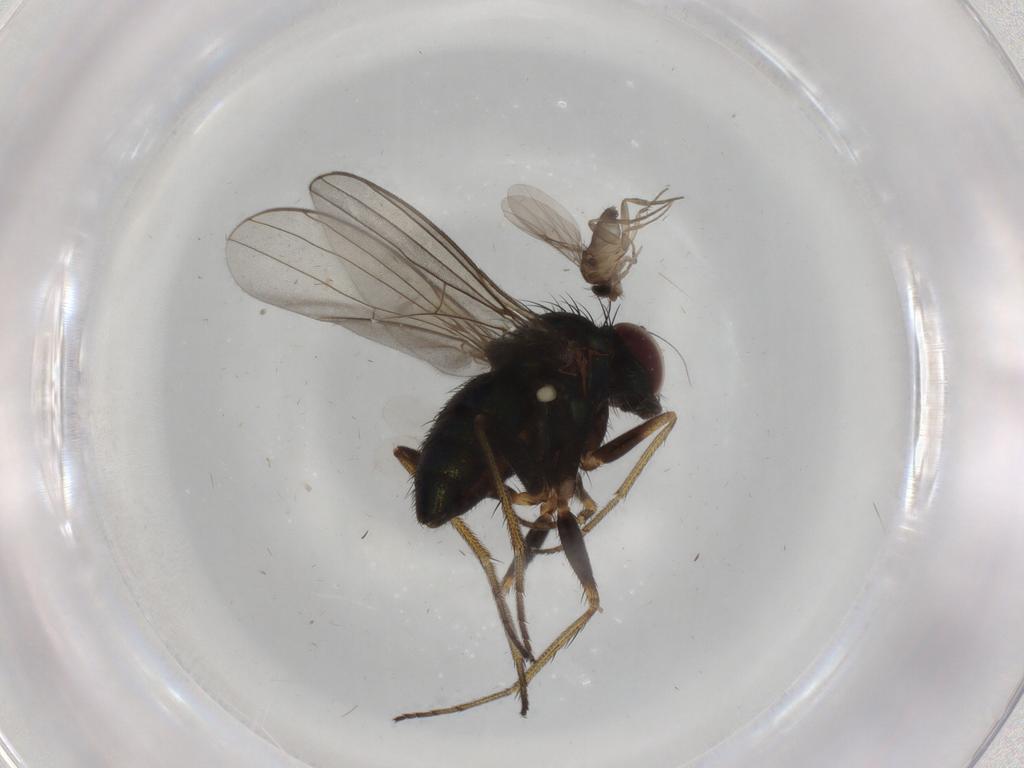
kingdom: Animalia
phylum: Arthropoda
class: Insecta
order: Diptera
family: Cecidomyiidae
